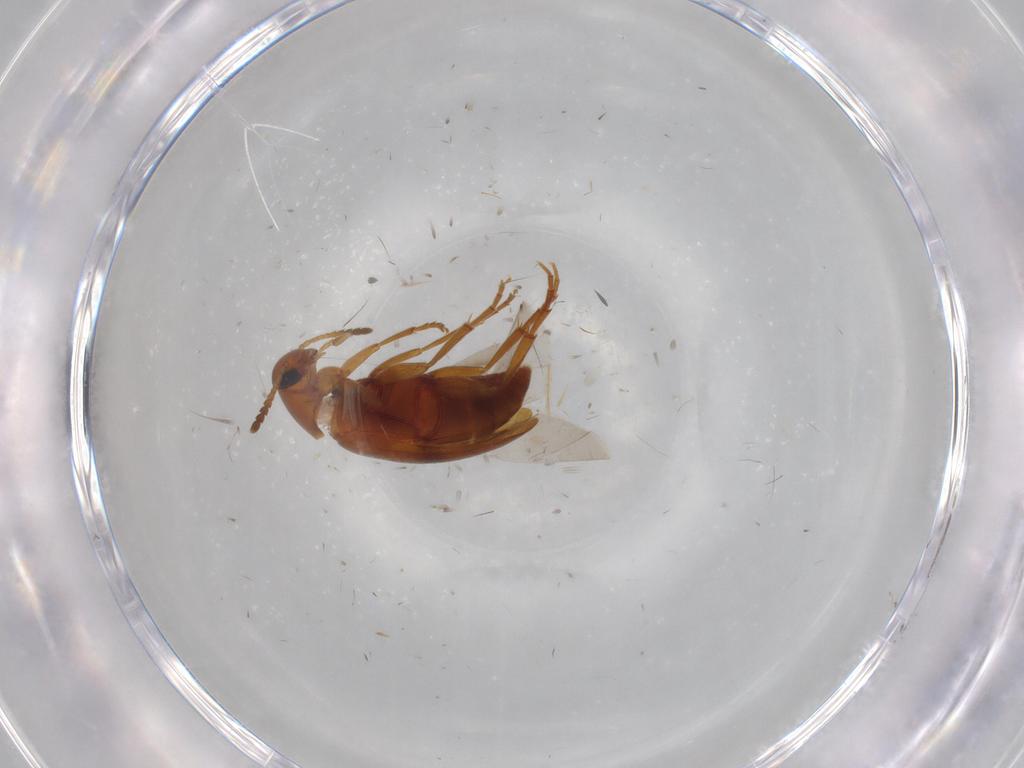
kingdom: Animalia
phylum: Arthropoda
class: Insecta
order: Coleoptera
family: Scraptiidae
